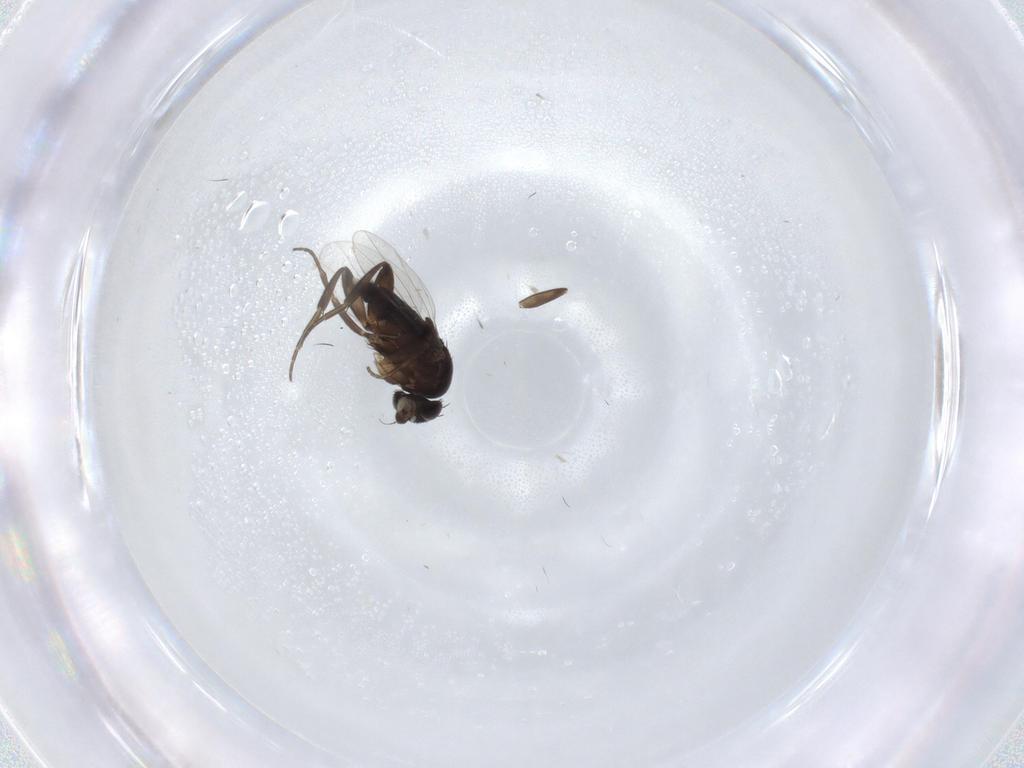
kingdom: Animalia
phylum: Arthropoda
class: Insecta
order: Diptera
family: Phoridae
